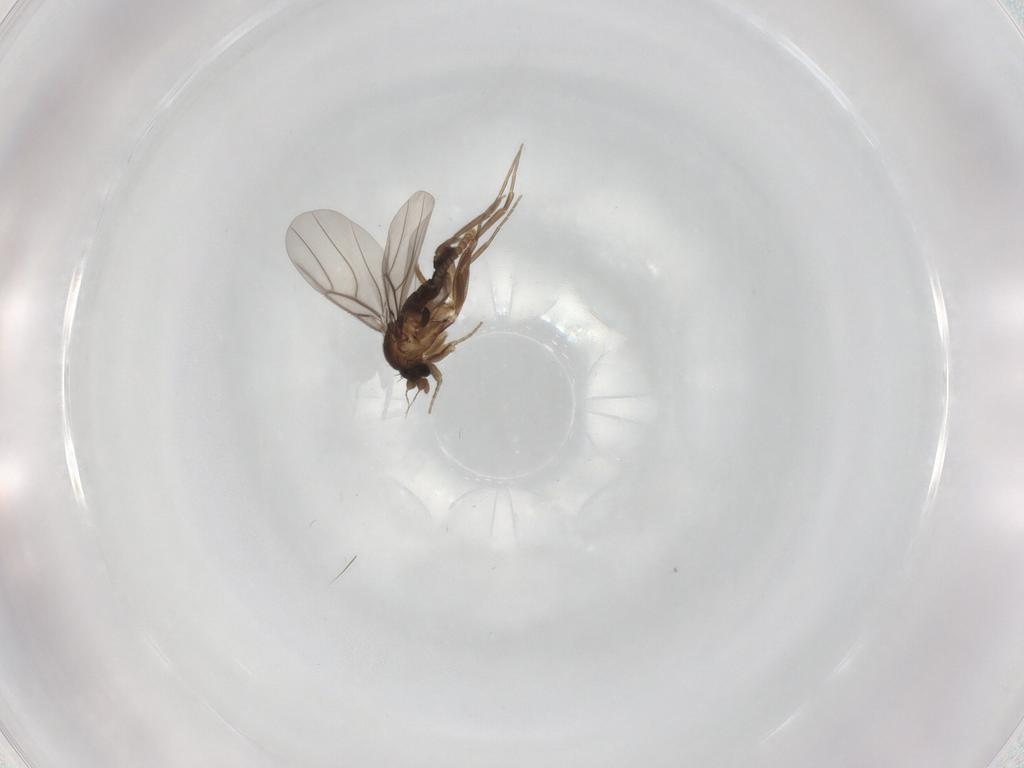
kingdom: Animalia
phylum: Arthropoda
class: Insecta
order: Diptera
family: Phoridae
